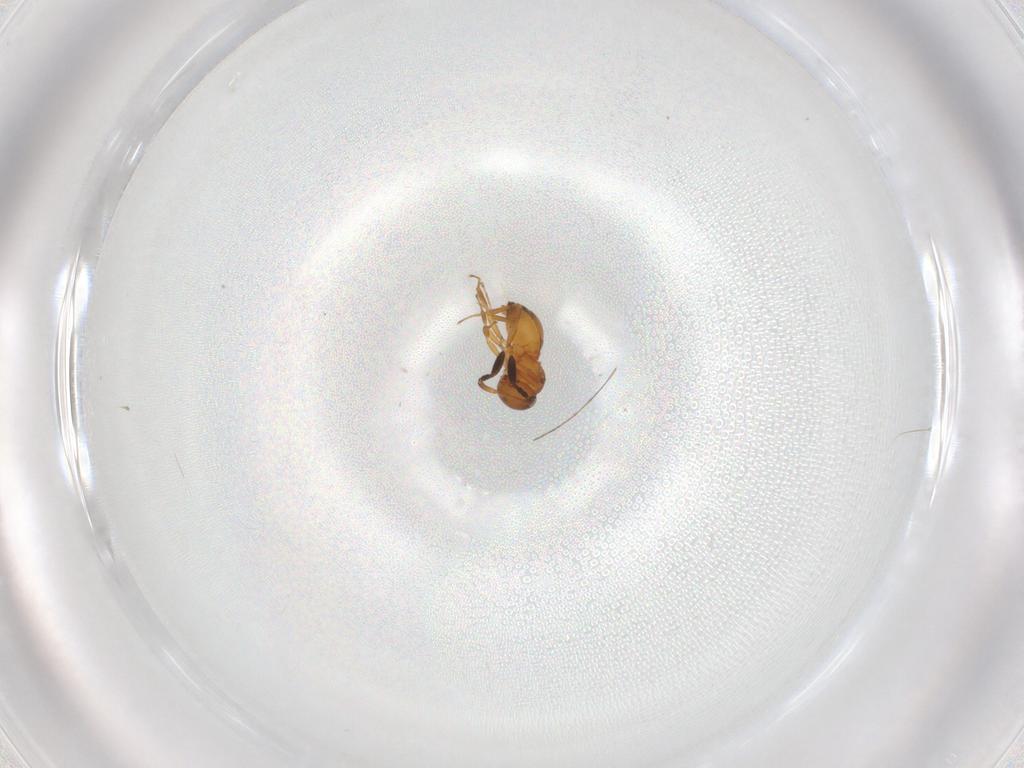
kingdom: Animalia
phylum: Arthropoda
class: Insecta
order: Hymenoptera
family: Scelionidae
